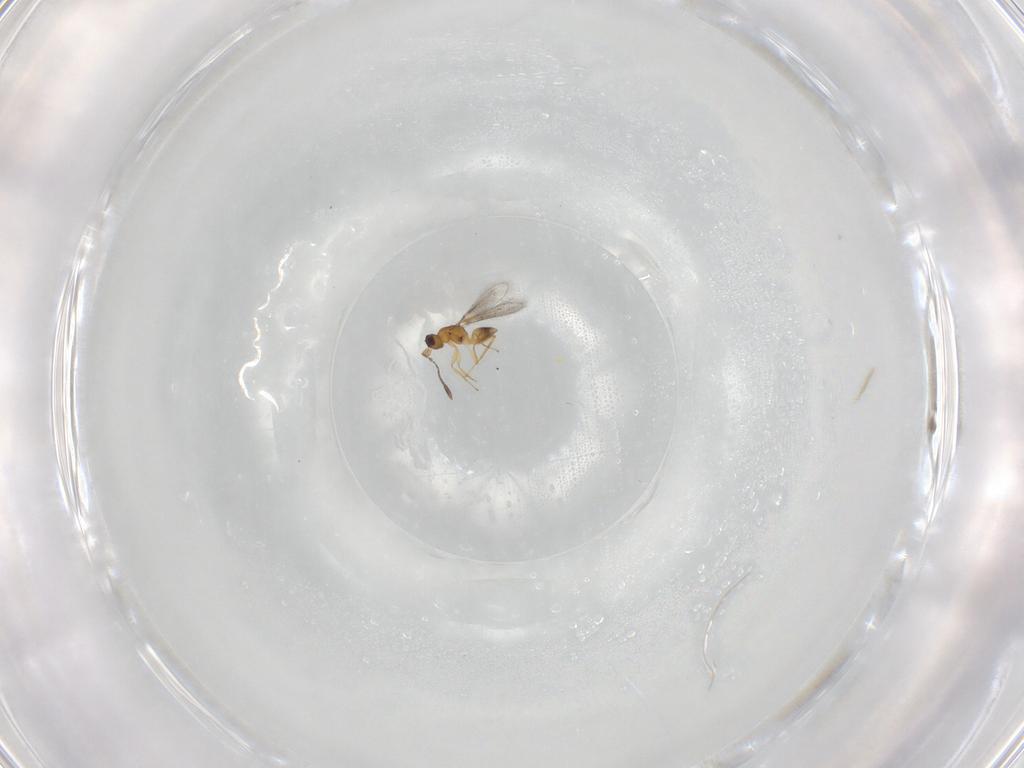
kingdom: Animalia
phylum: Arthropoda
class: Insecta
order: Hymenoptera
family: Mymaridae
